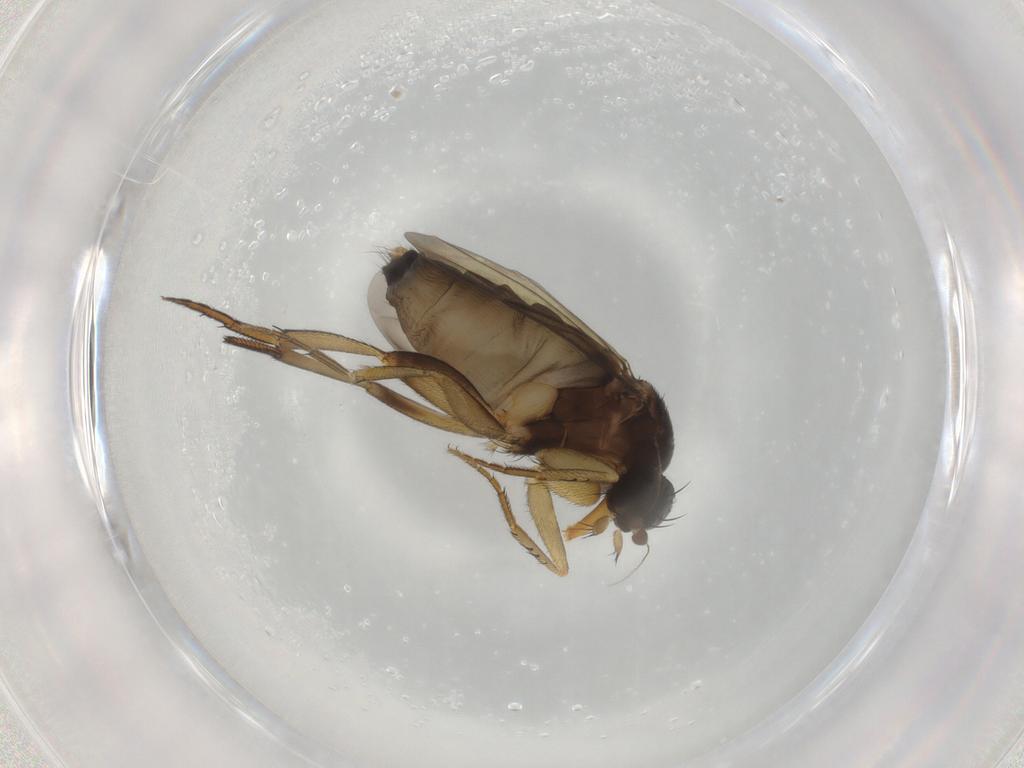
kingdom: Animalia
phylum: Arthropoda
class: Insecta
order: Diptera
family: Phoridae
